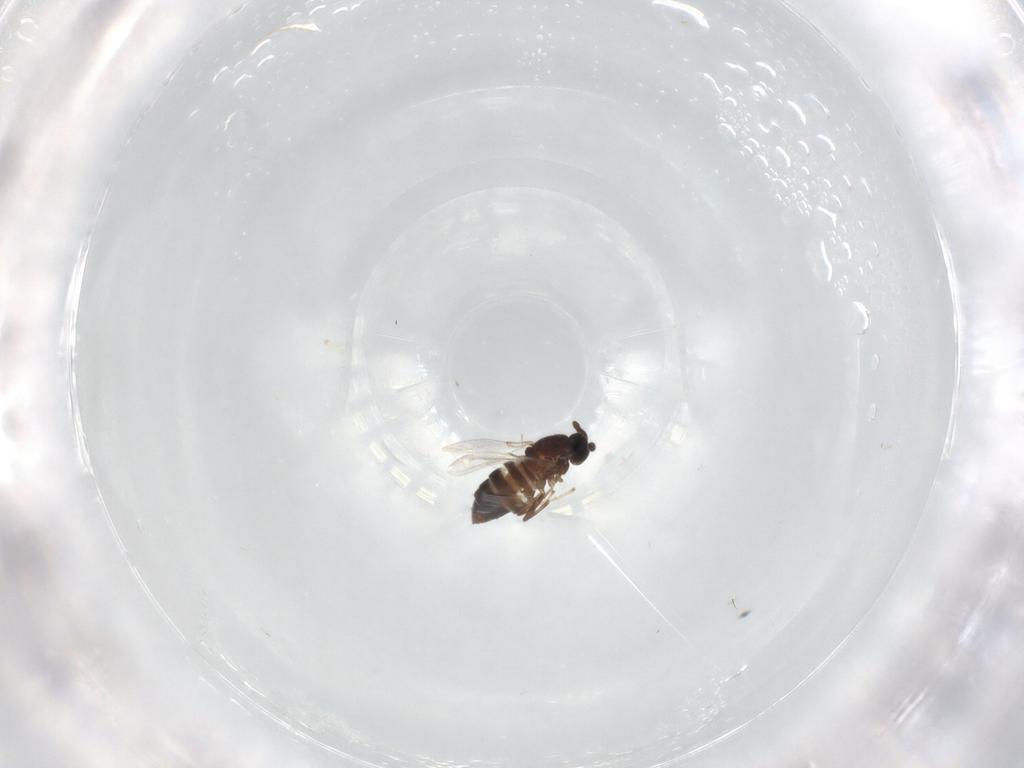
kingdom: Animalia
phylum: Arthropoda
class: Insecta
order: Diptera
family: Scatopsidae
